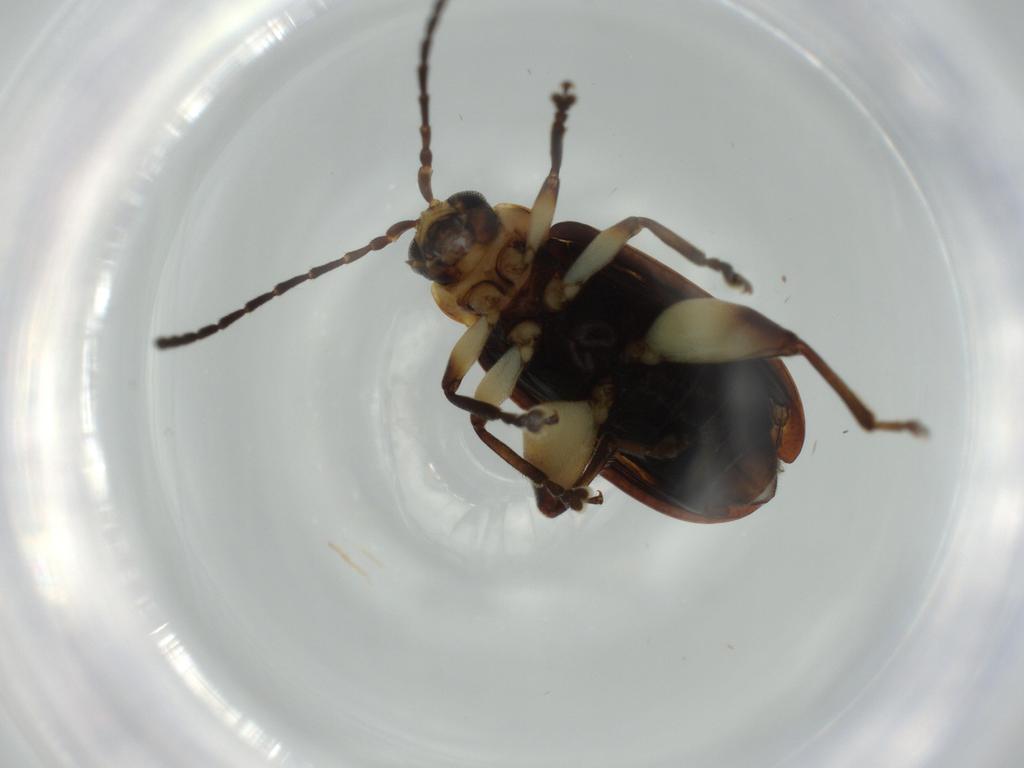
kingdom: Animalia
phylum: Arthropoda
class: Insecta
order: Coleoptera
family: Chrysomelidae
